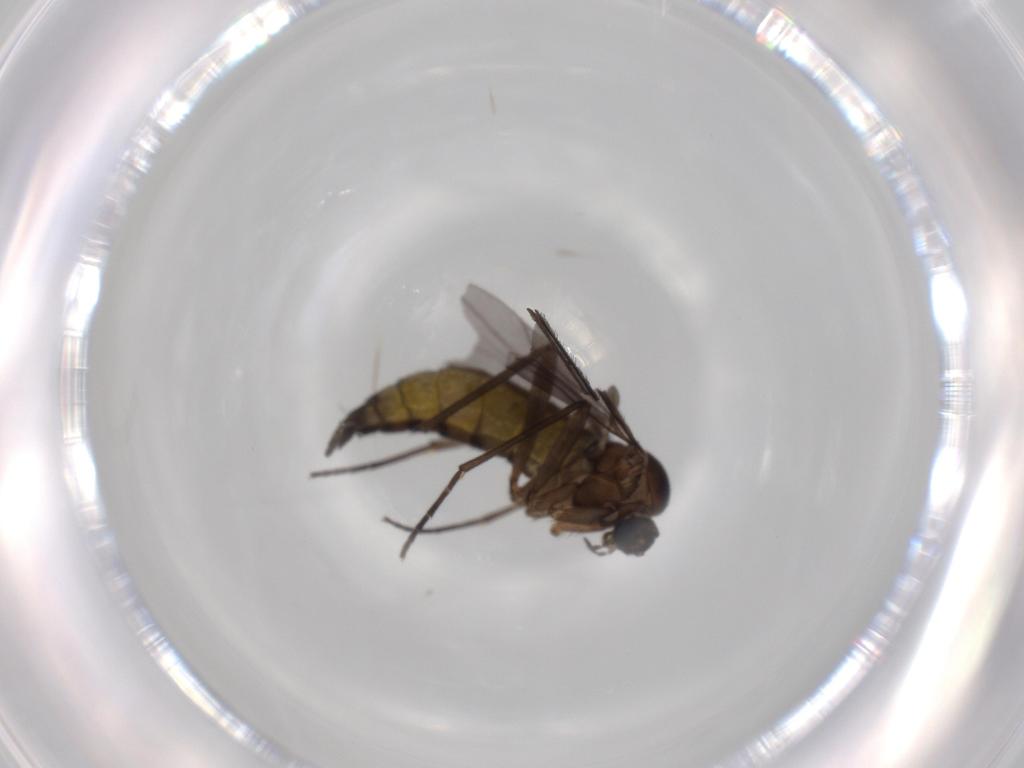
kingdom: Animalia
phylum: Arthropoda
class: Insecta
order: Diptera
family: Sciaridae
